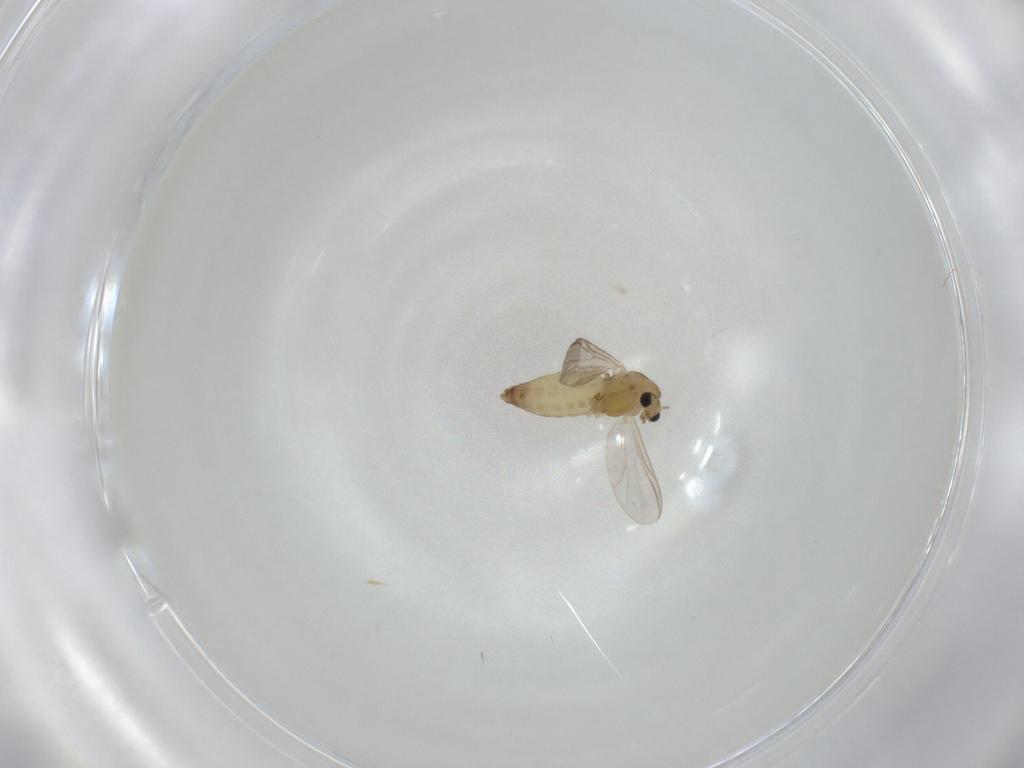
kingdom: Animalia
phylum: Arthropoda
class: Insecta
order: Diptera
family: Chironomidae
